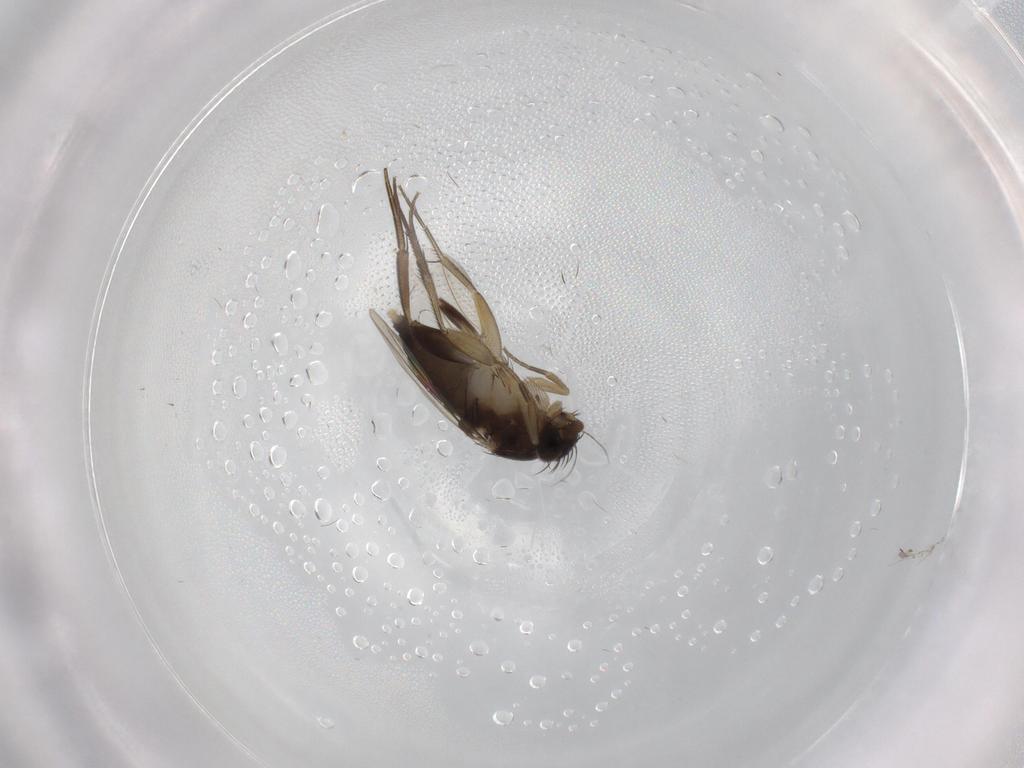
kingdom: Animalia
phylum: Arthropoda
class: Insecta
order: Diptera
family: Phoridae
